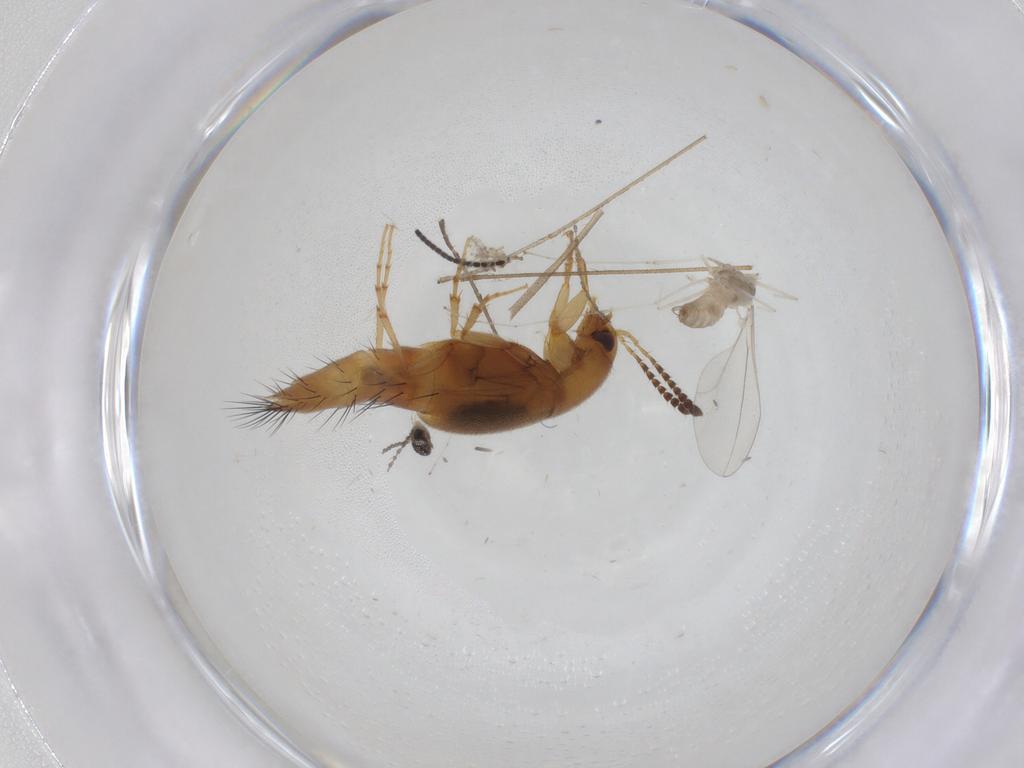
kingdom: Animalia
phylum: Arthropoda
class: Insecta
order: Diptera
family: Limoniidae
